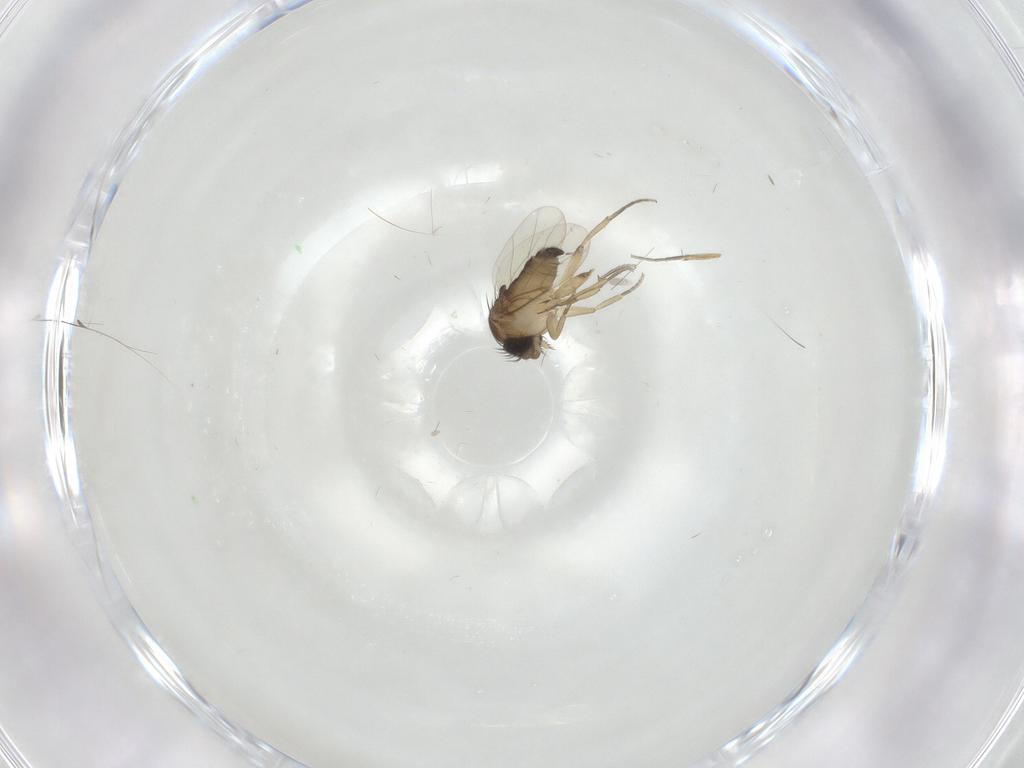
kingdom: Animalia
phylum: Arthropoda
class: Insecta
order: Diptera
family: Phoridae
